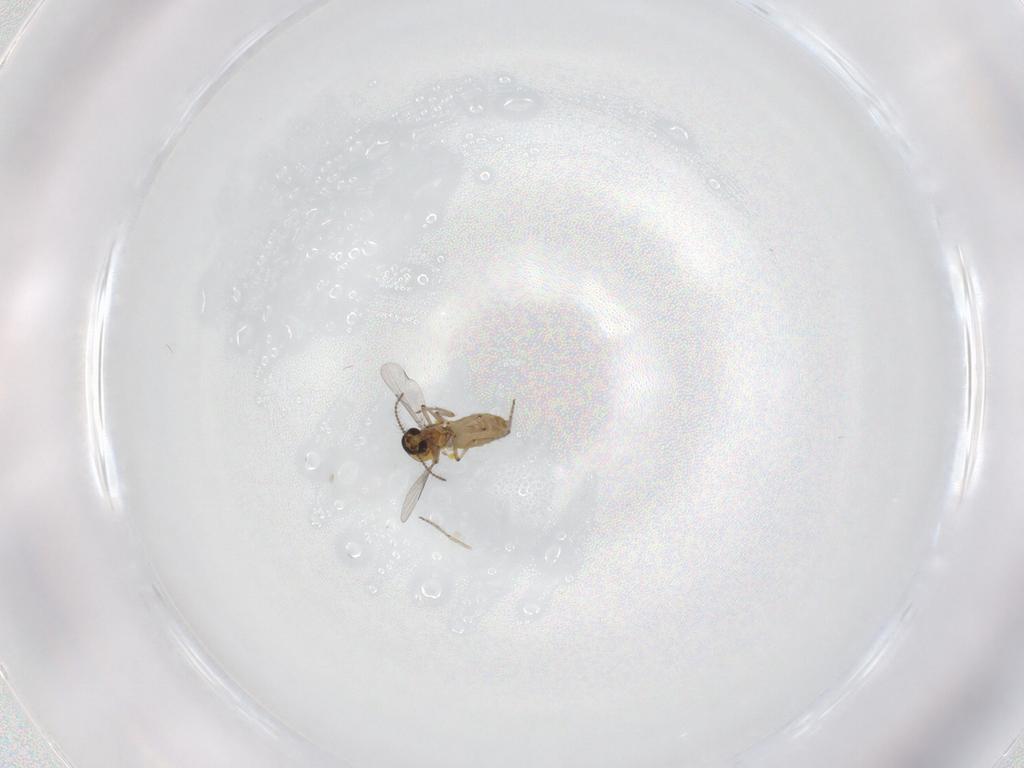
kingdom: Animalia
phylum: Arthropoda
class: Insecta
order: Diptera
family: Ceratopogonidae
